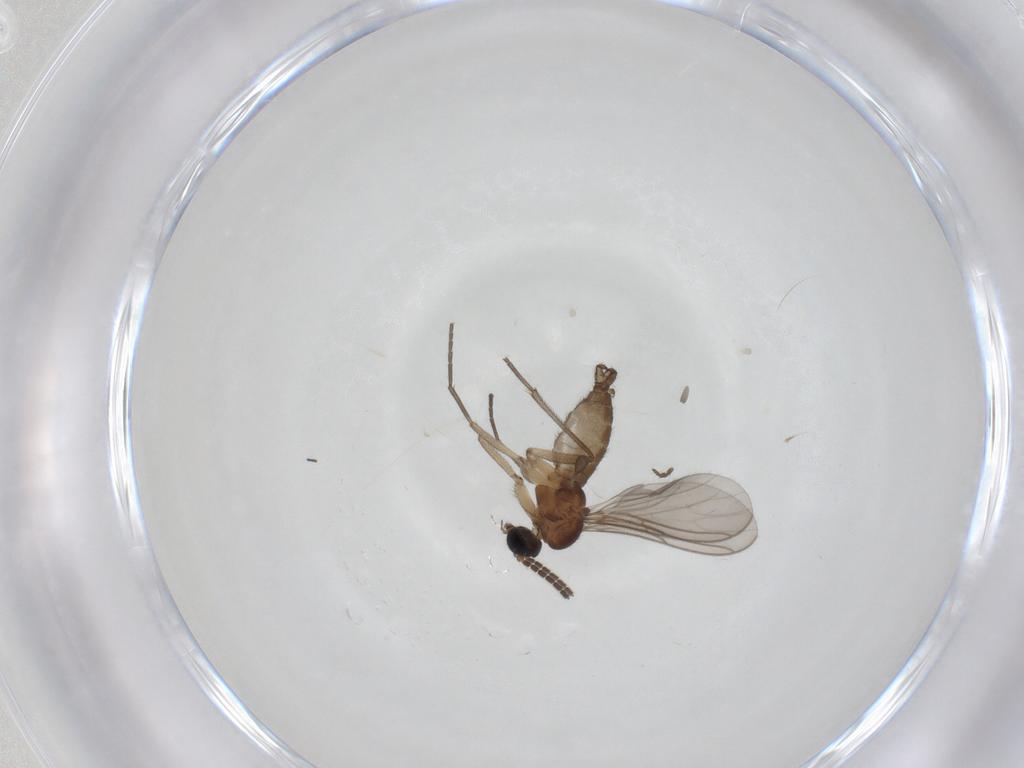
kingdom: Animalia
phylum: Arthropoda
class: Insecta
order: Diptera
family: Sciaridae
